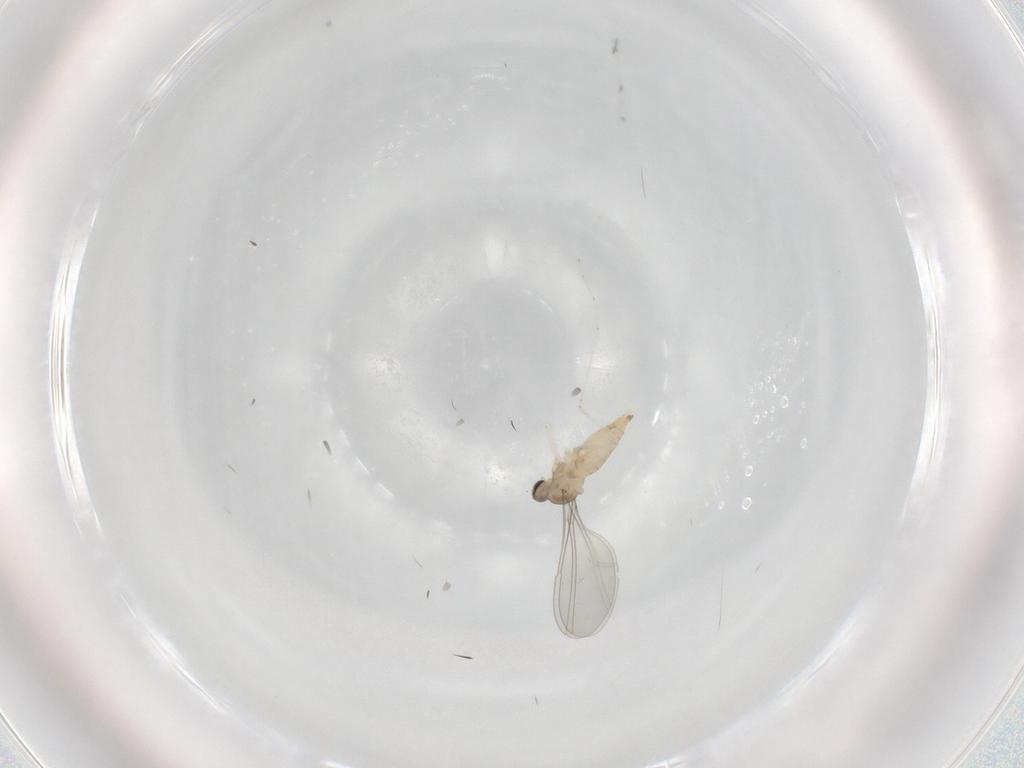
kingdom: Animalia
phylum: Arthropoda
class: Insecta
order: Diptera
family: Cecidomyiidae
